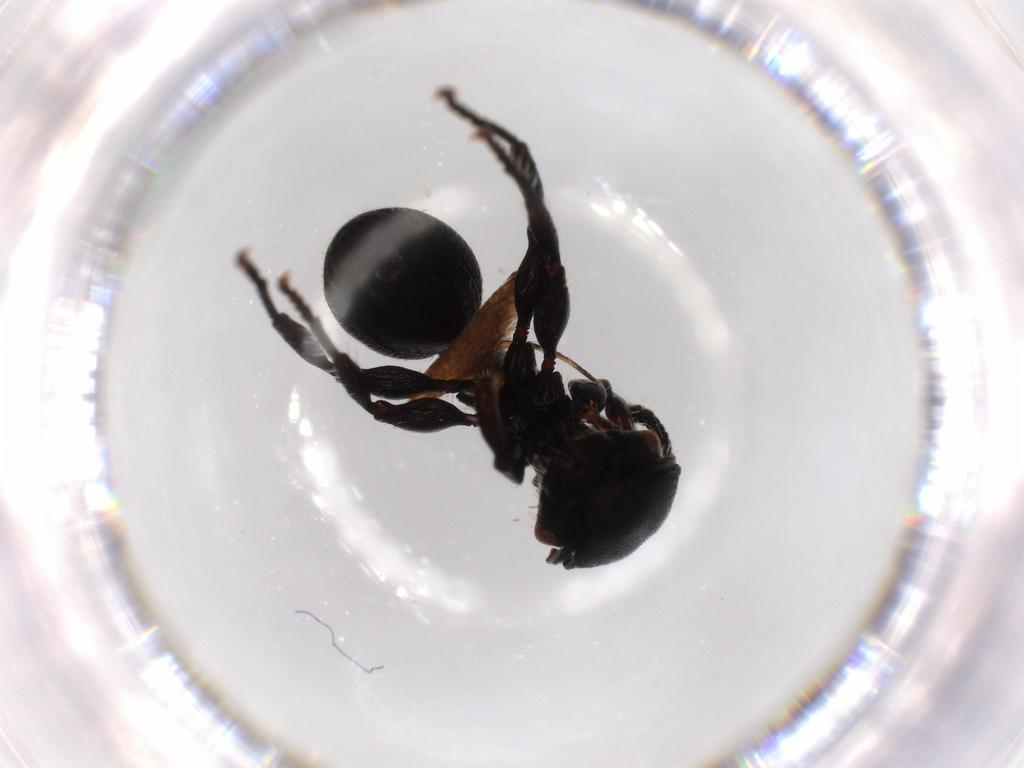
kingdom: Animalia
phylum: Arthropoda
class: Insecta
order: Hymenoptera
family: Formicidae
